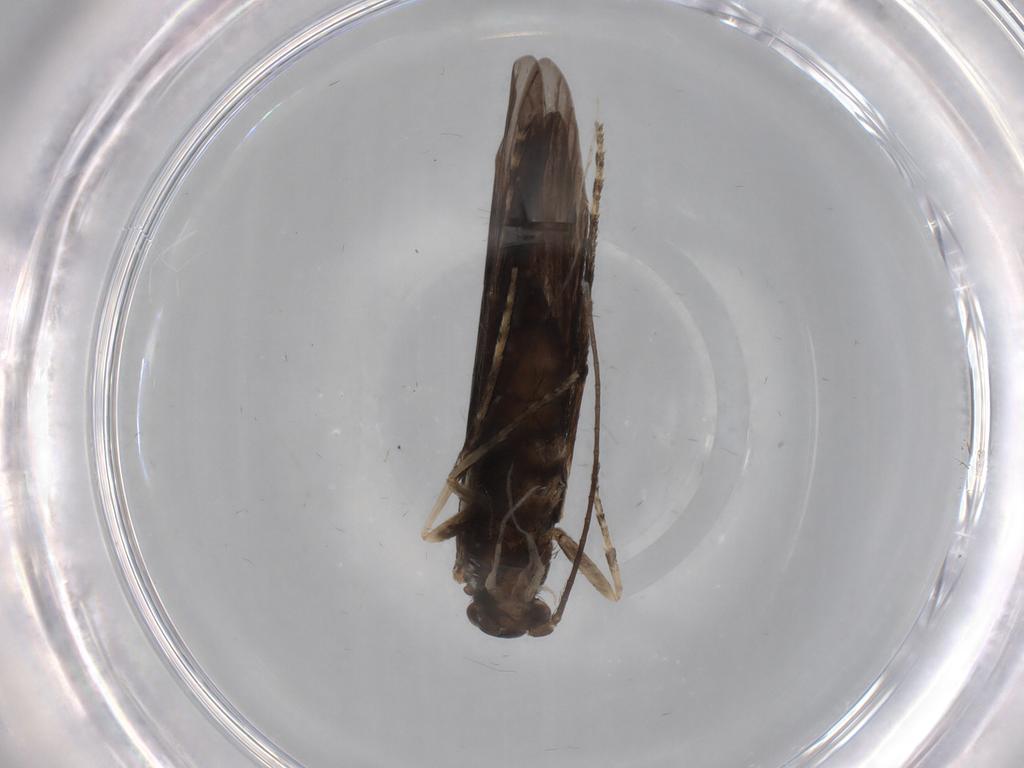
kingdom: Animalia
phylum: Arthropoda
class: Insecta
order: Trichoptera
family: Xiphocentronidae
